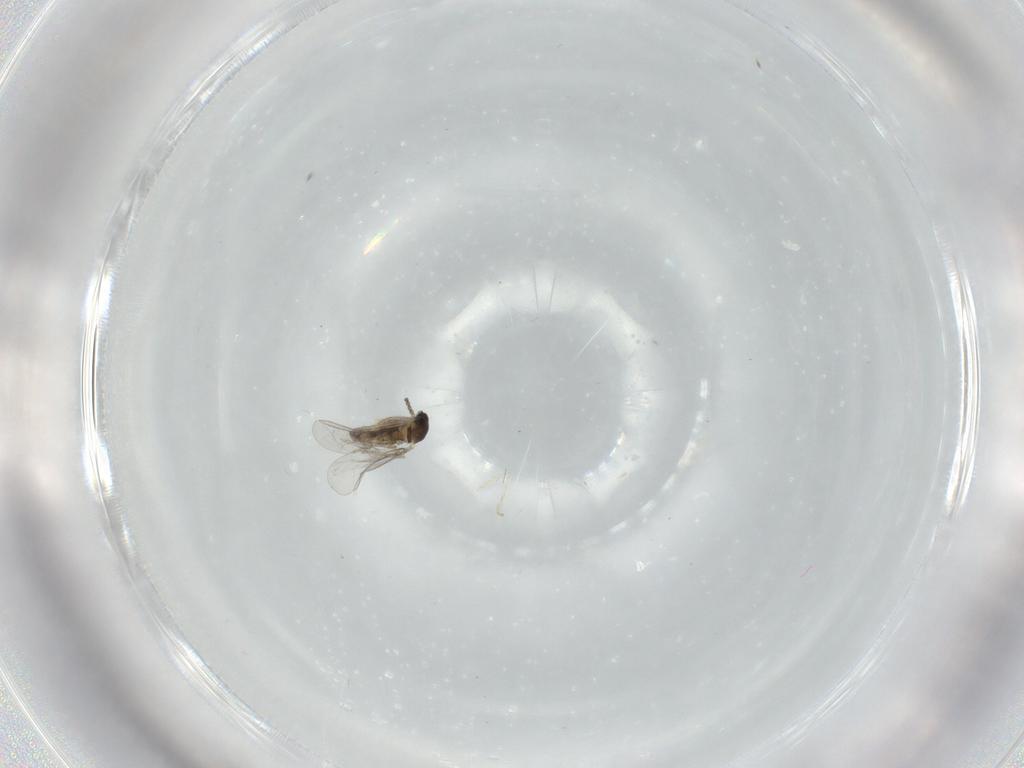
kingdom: Animalia
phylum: Arthropoda
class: Insecta
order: Diptera
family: Cecidomyiidae
